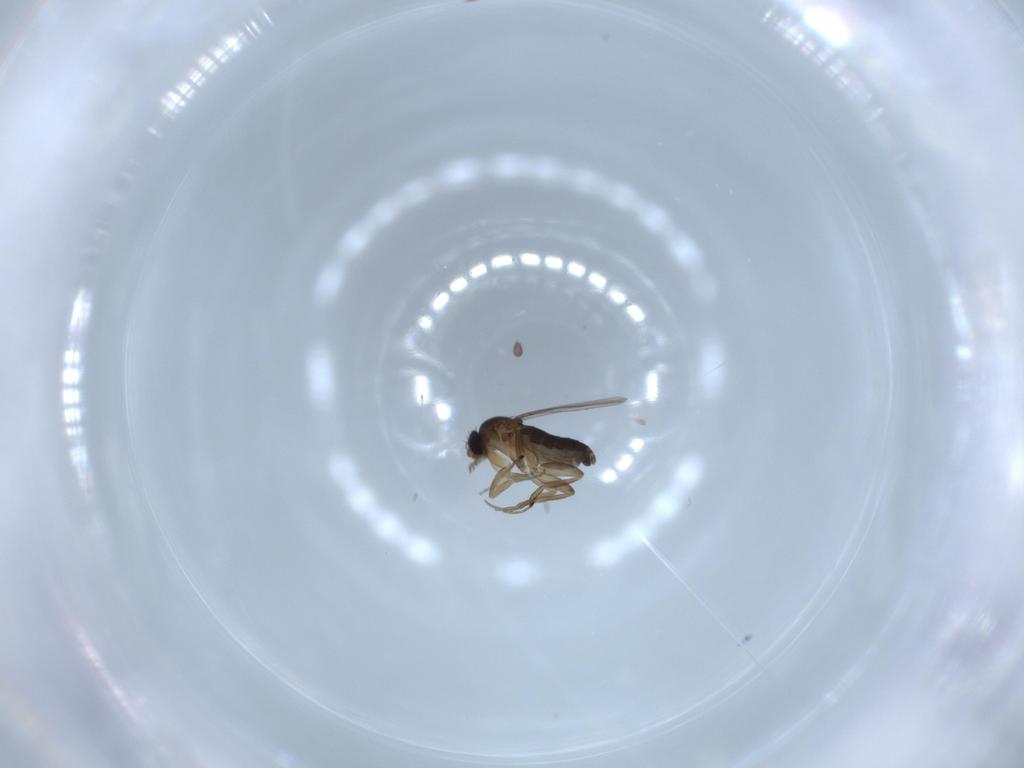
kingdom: Animalia
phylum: Arthropoda
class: Insecta
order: Diptera
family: Phoridae
